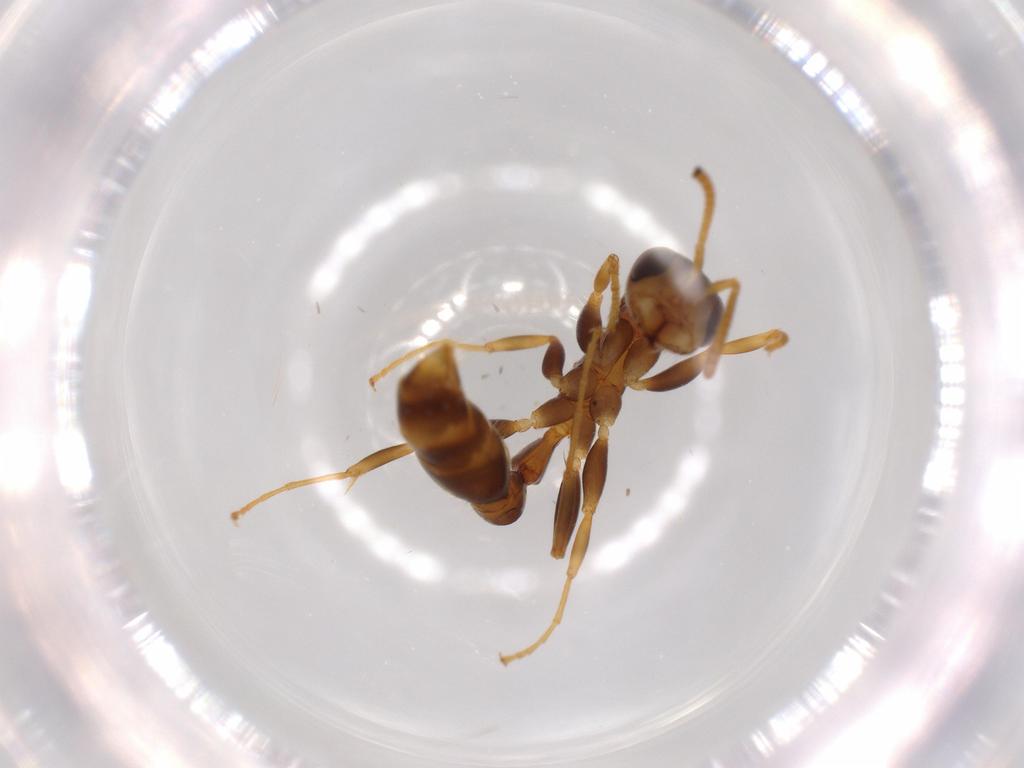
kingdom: Animalia
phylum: Arthropoda
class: Insecta
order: Hymenoptera
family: Formicidae
